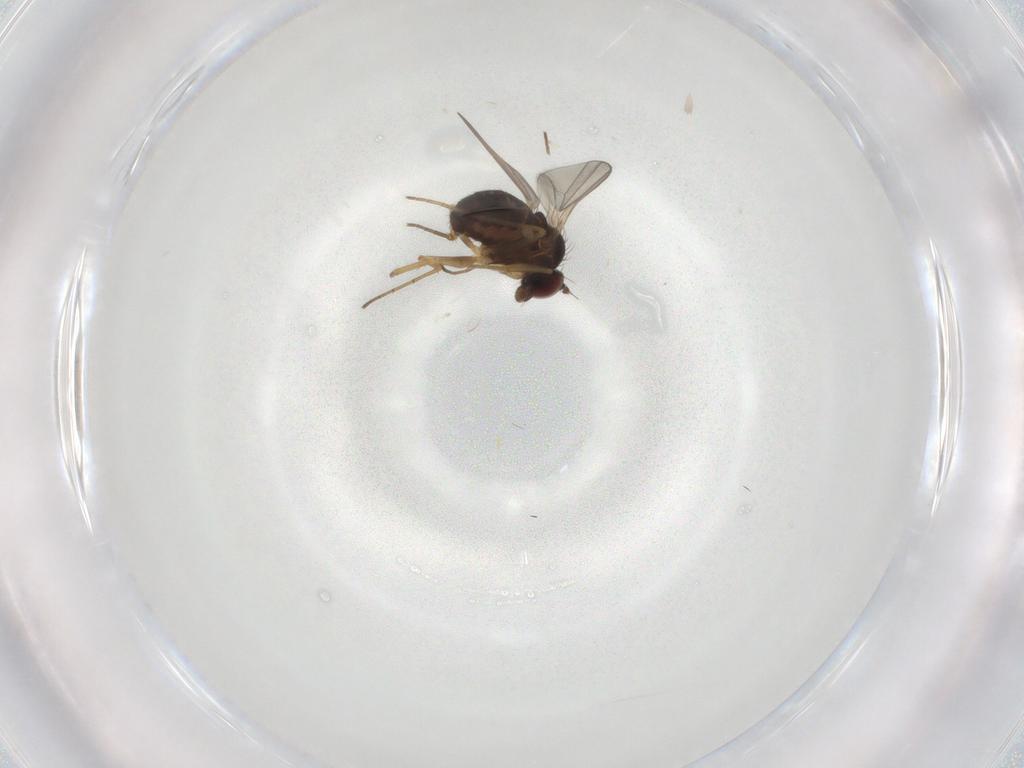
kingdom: Animalia
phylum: Arthropoda
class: Insecta
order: Diptera
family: Dolichopodidae
